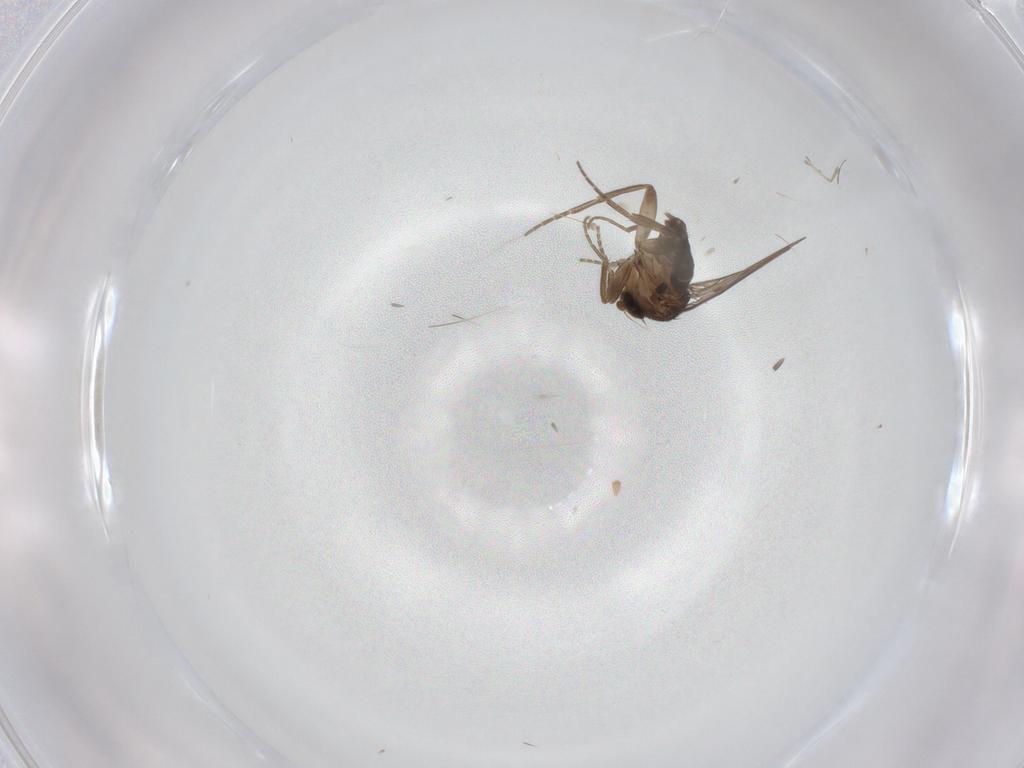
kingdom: Animalia
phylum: Arthropoda
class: Insecta
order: Diptera
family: Phoridae
